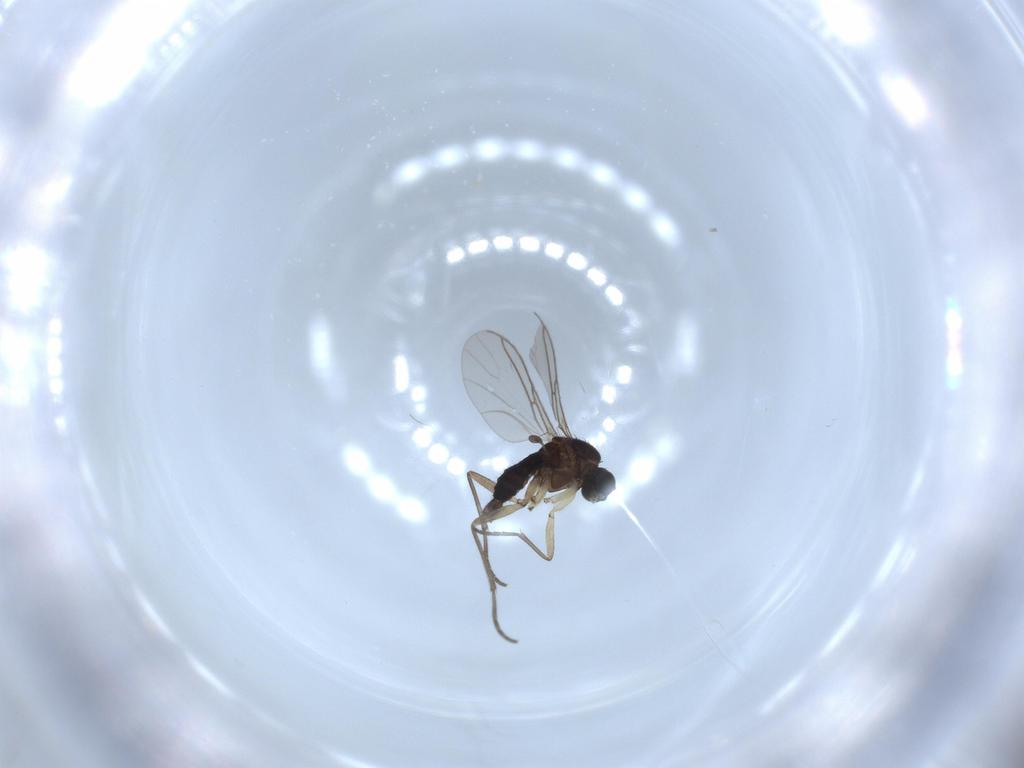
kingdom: Animalia
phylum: Arthropoda
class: Insecta
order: Diptera
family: Sciaridae
